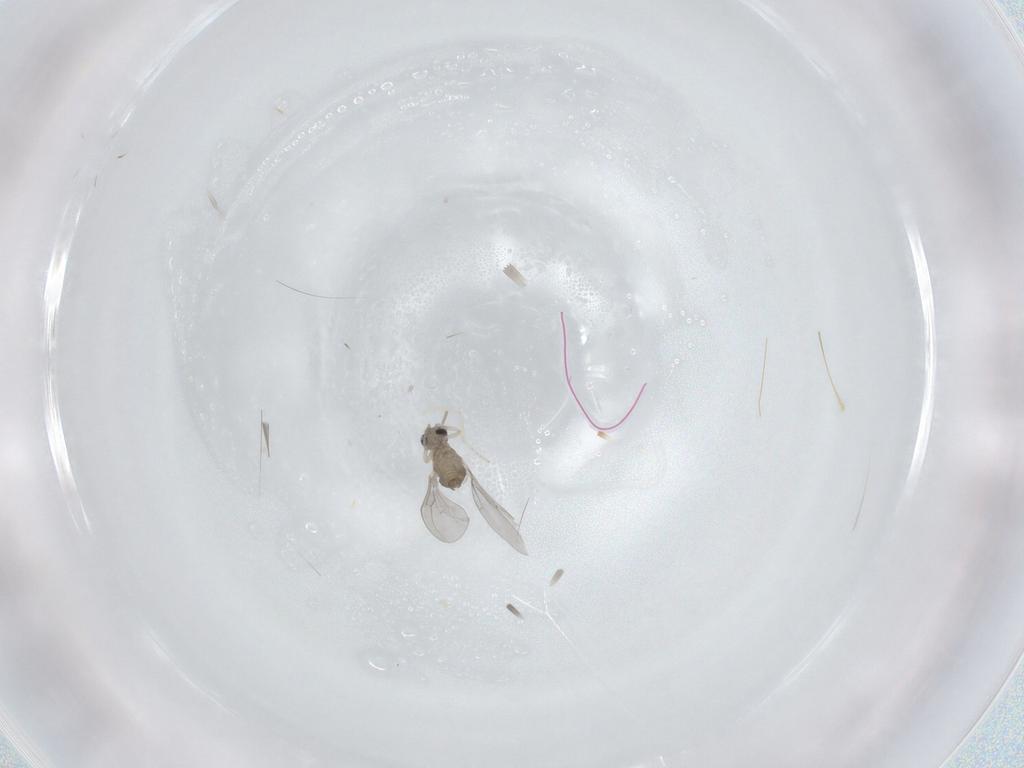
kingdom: Animalia
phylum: Arthropoda
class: Insecta
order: Diptera
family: Cecidomyiidae
